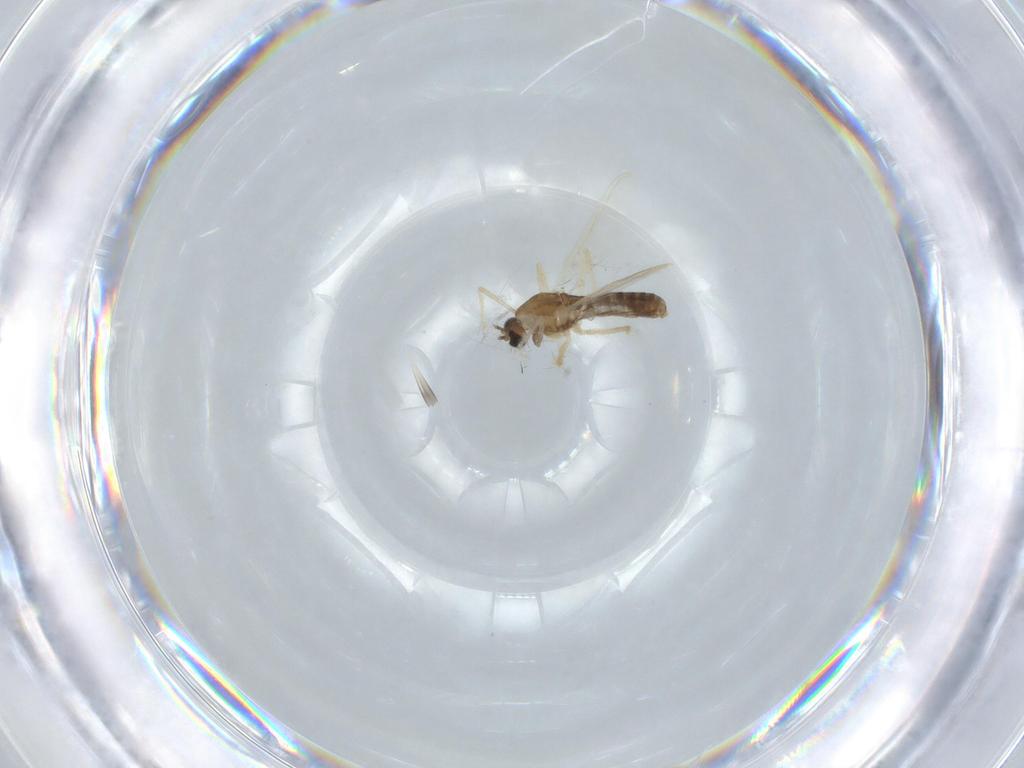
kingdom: Animalia
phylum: Arthropoda
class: Insecta
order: Diptera
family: Chironomidae
